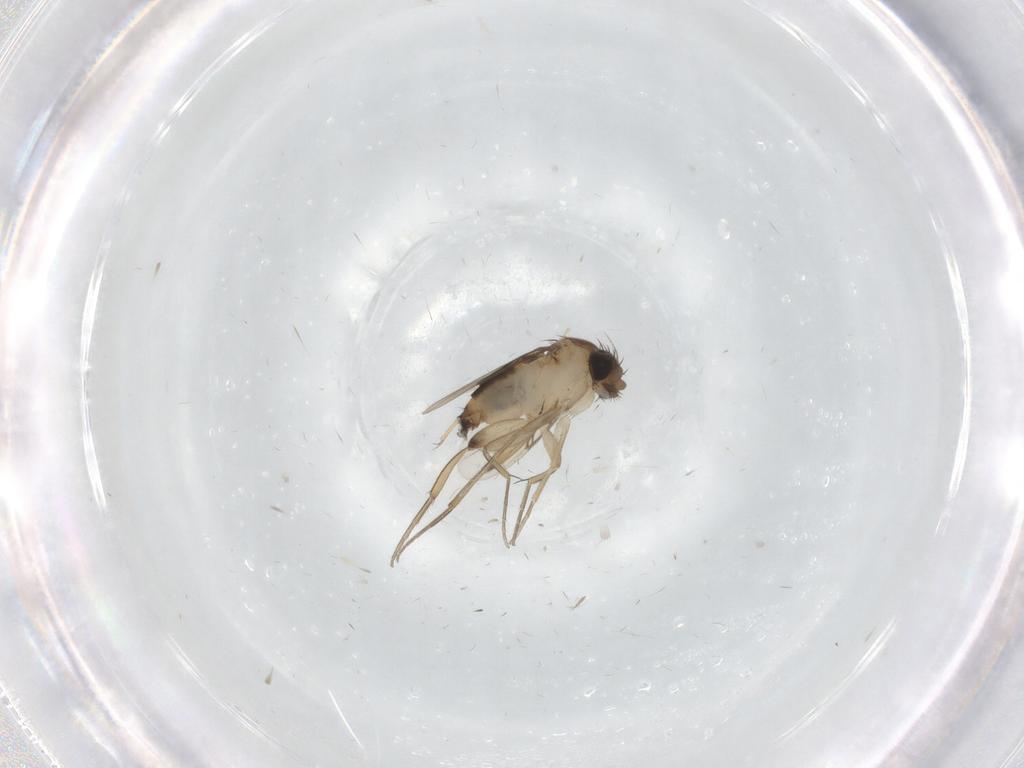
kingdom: Animalia
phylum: Arthropoda
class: Insecta
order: Diptera
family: Phoridae
